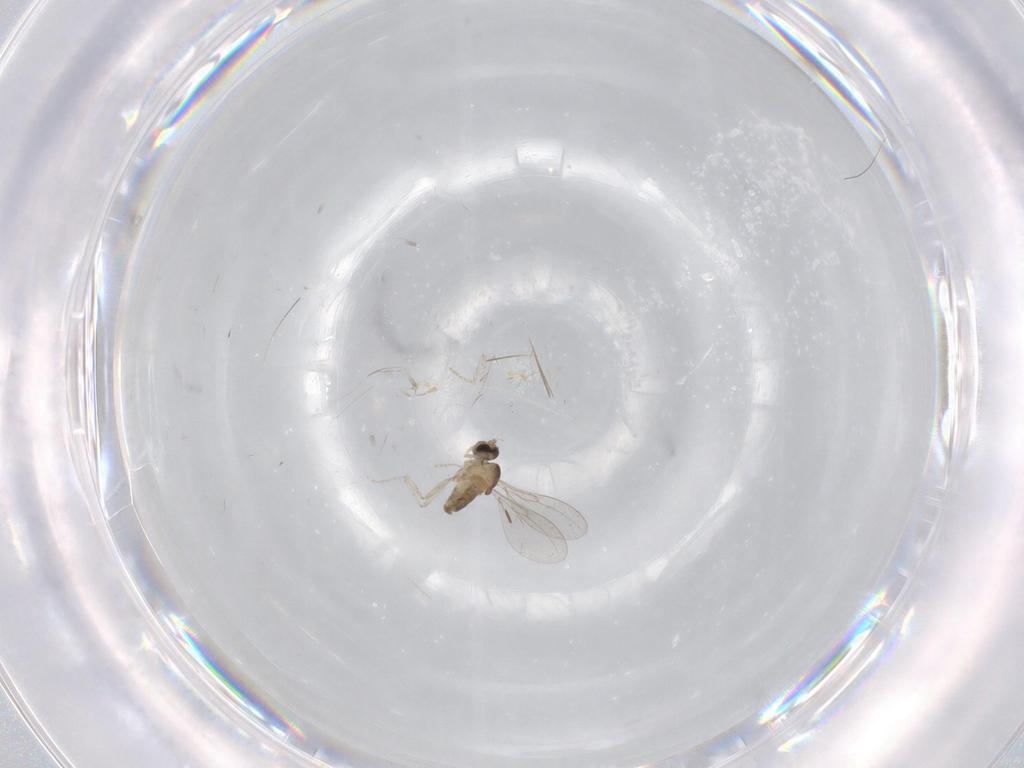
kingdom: Animalia
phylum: Arthropoda
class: Insecta
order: Diptera
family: Cecidomyiidae
